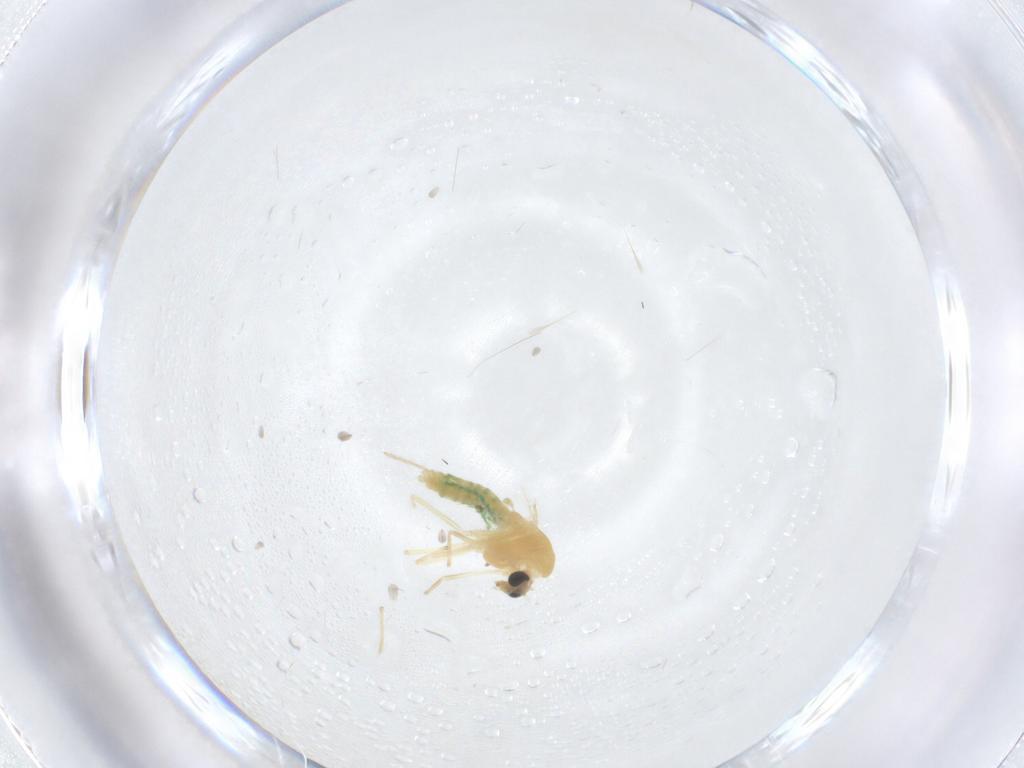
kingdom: Animalia
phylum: Arthropoda
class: Insecta
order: Diptera
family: Chironomidae
